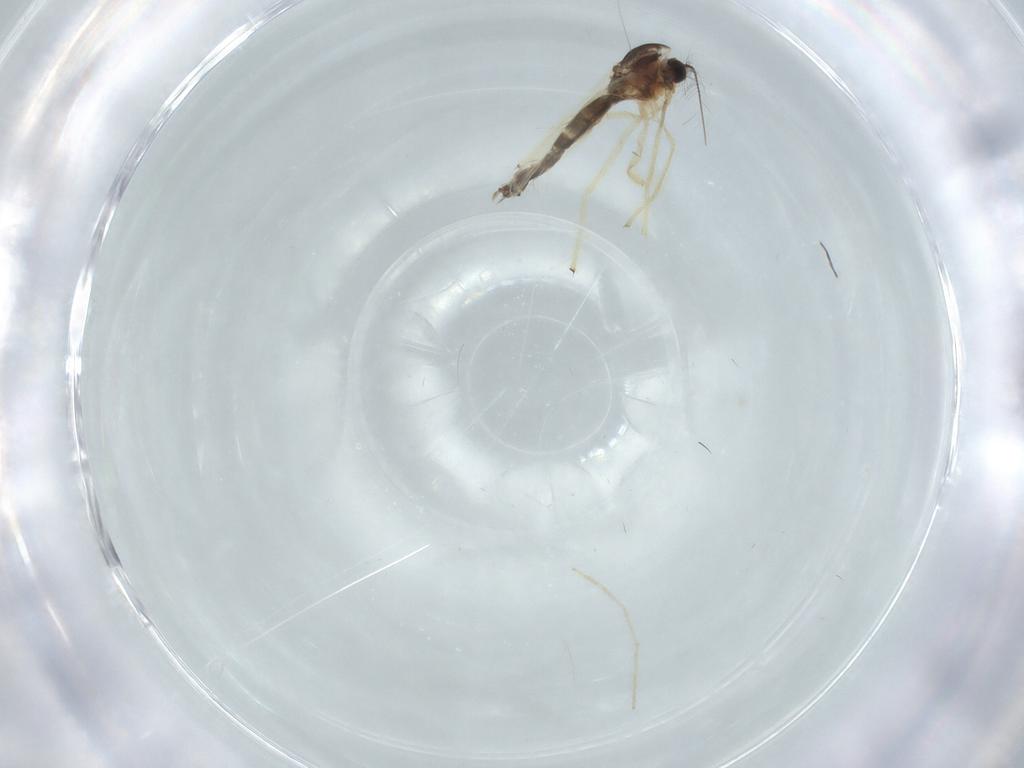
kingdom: Animalia
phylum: Arthropoda
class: Insecta
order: Diptera
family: Chironomidae
